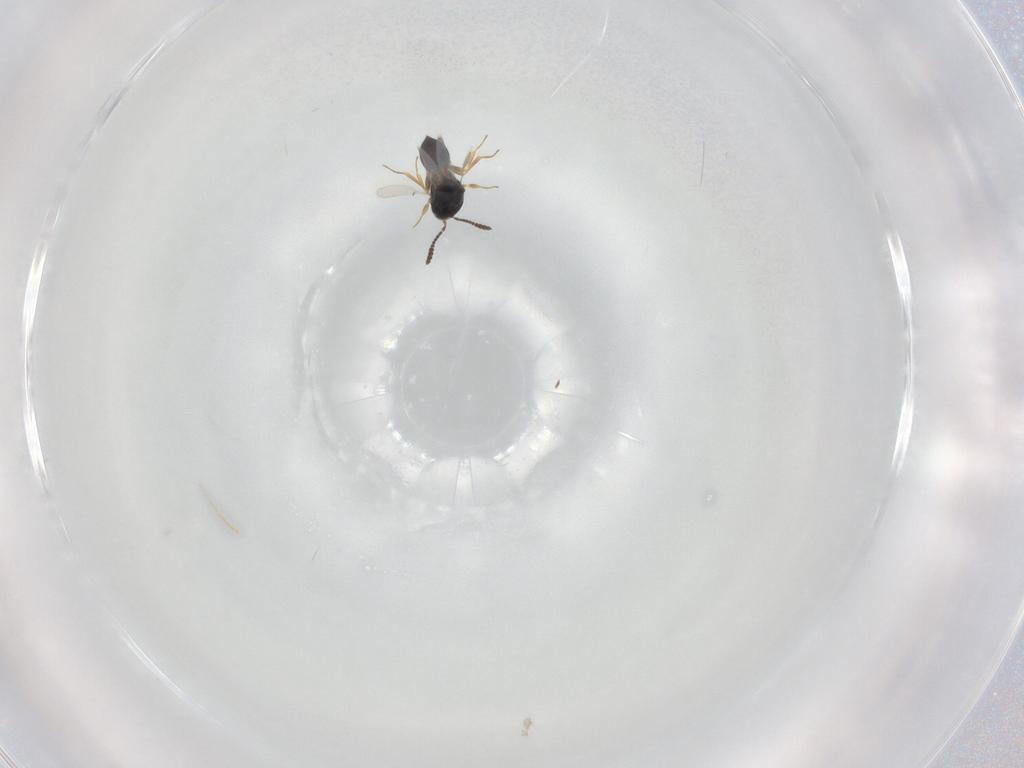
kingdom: Animalia
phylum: Arthropoda
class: Insecta
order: Hymenoptera
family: Scelionidae
